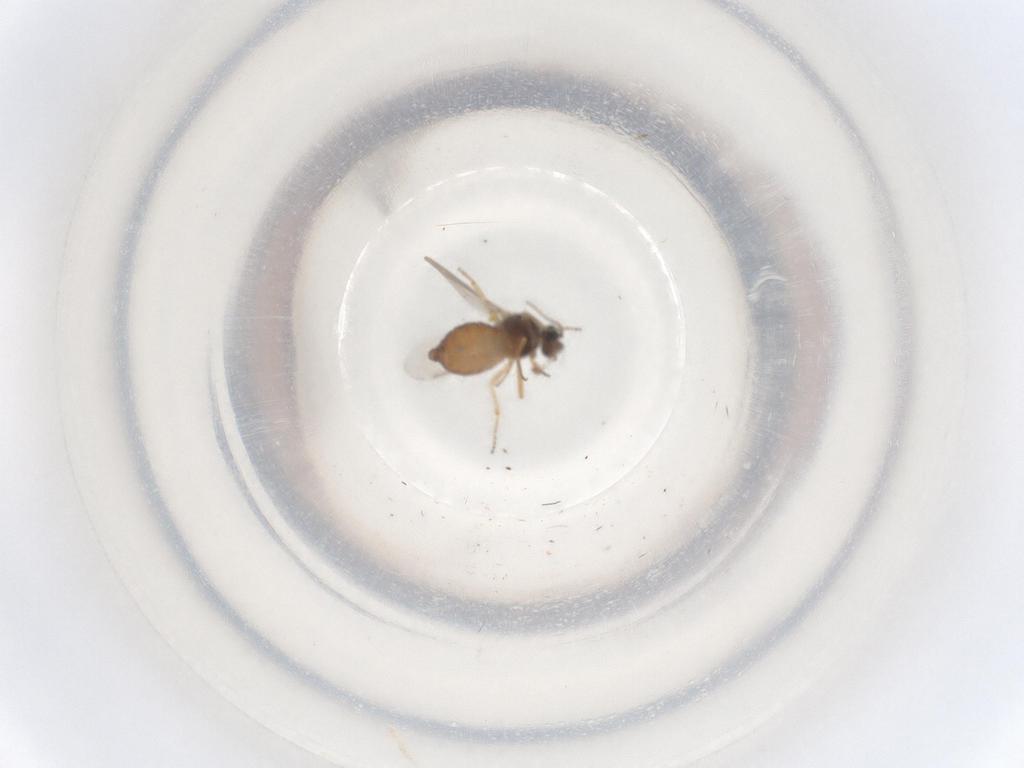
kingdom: Animalia
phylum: Arthropoda
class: Insecta
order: Diptera
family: Ceratopogonidae
